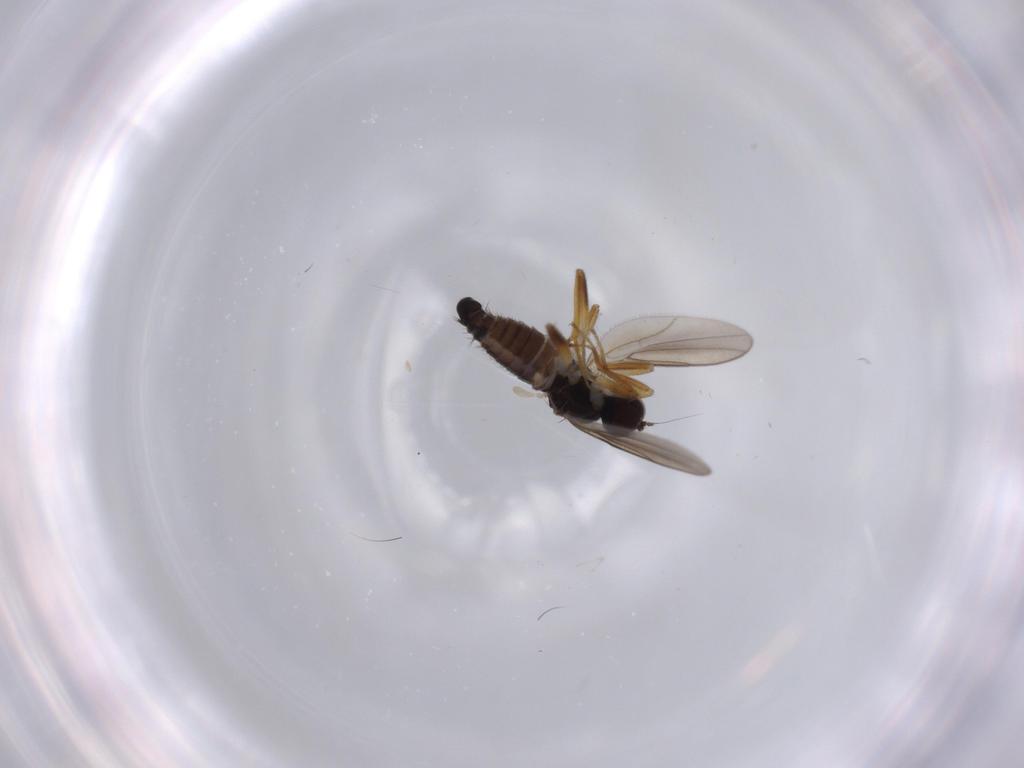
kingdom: Animalia
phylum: Arthropoda
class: Insecta
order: Diptera
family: Hybotidae
